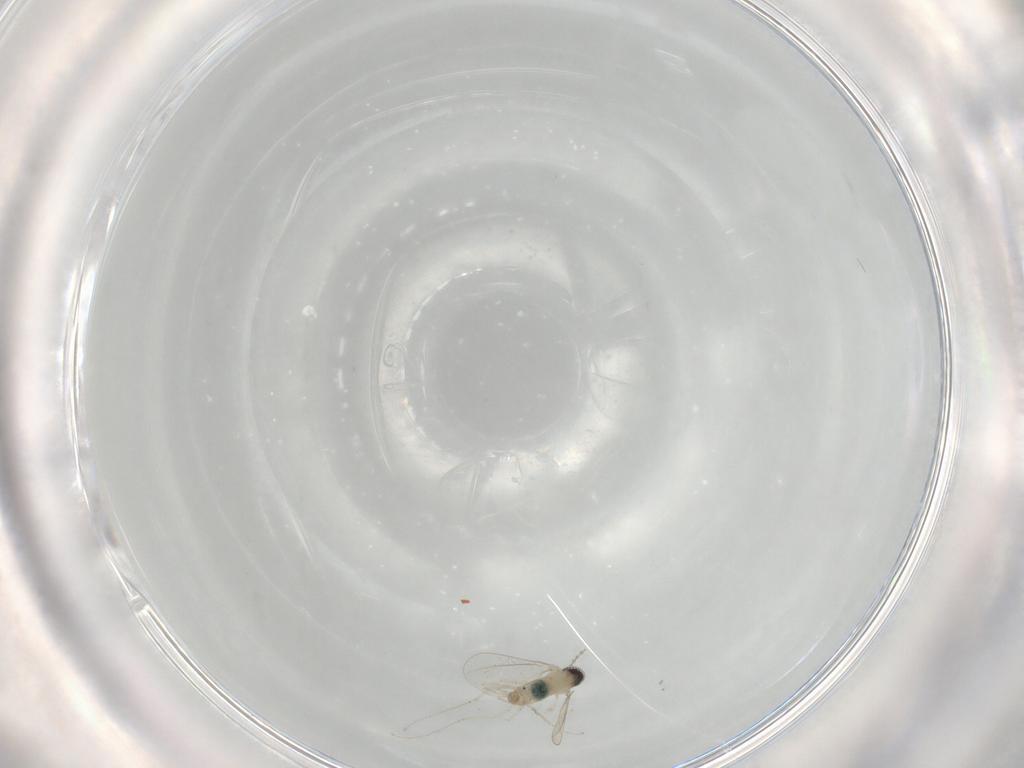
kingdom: Animalia
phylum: Arthropoda
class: Insecta
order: Diptera
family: Cecidomyiidae
